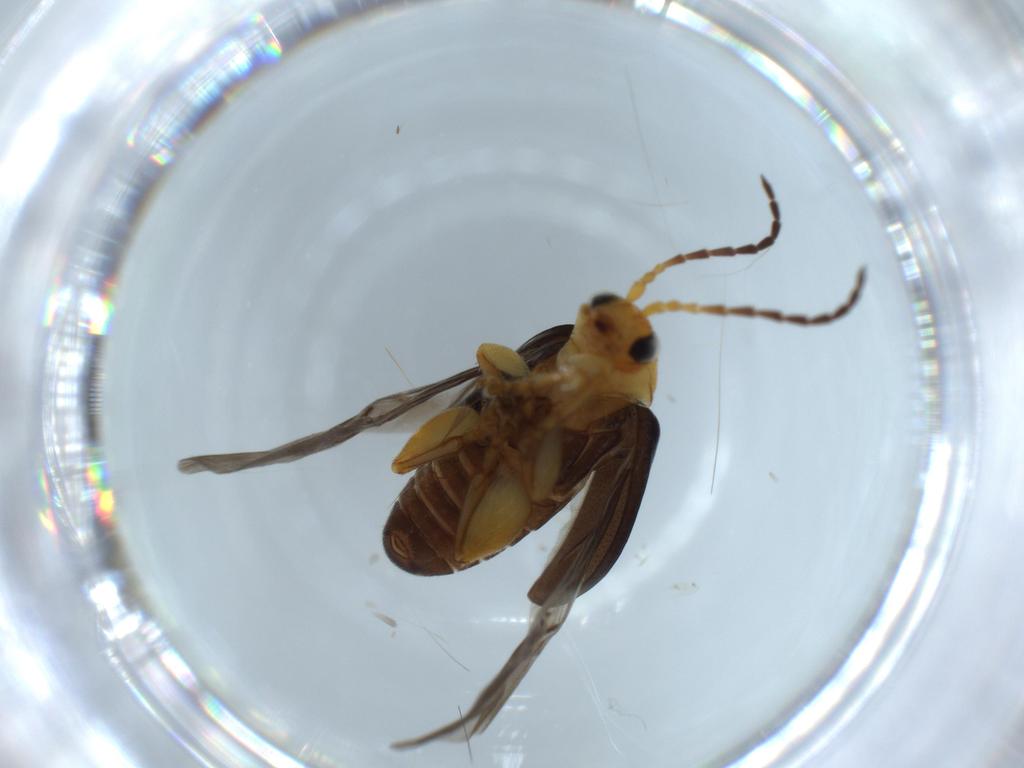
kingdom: Animalia
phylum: Arthropoda
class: Insecta
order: Coleoptera
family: Chrysomelidae
